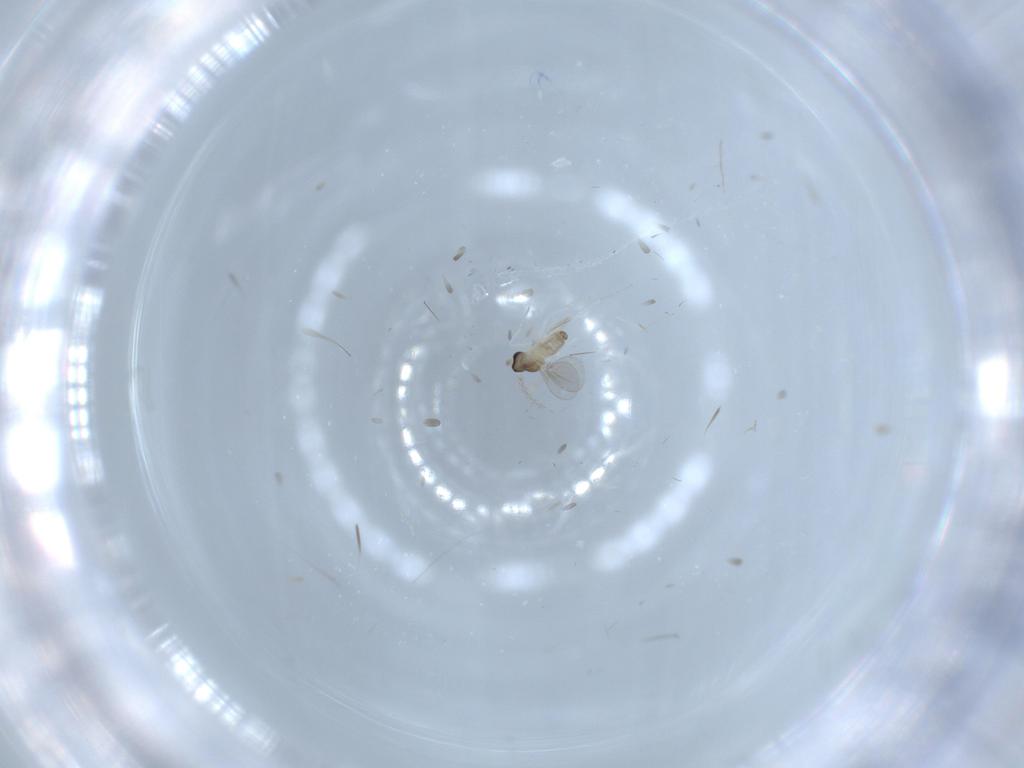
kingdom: Animalia
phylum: Arthropoda
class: Insecta
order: Diptera
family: Cecidomyiidae
